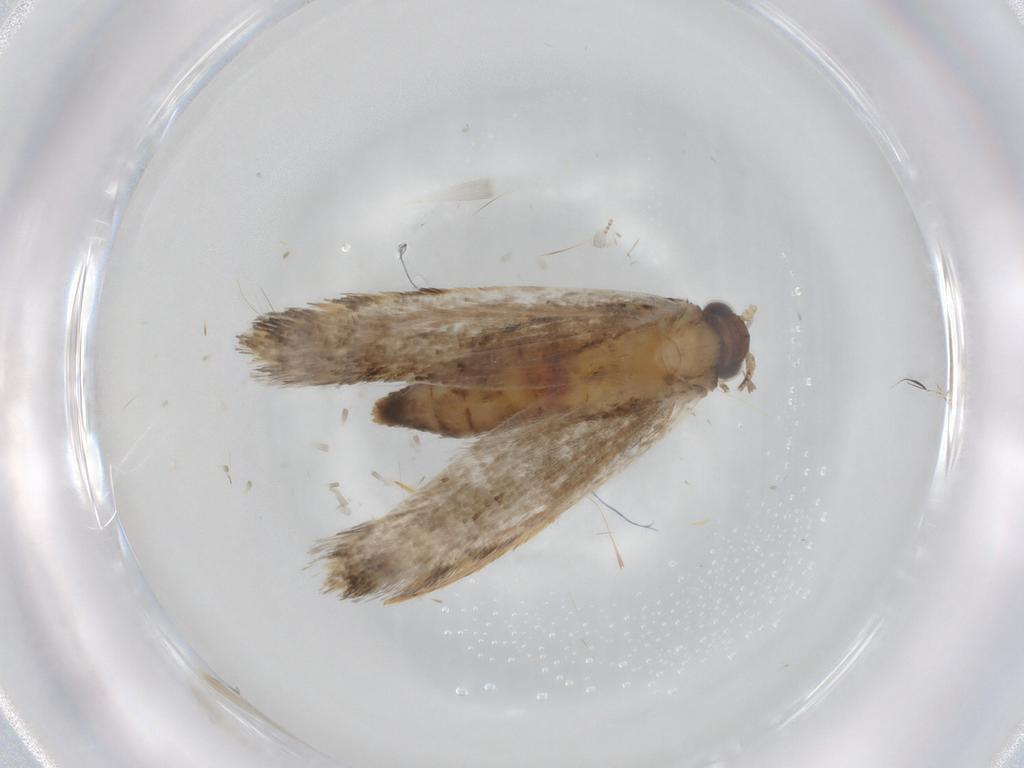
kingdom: Animalia
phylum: Arthropoda
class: Insecta
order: Lepidoptera
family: Tineidae
